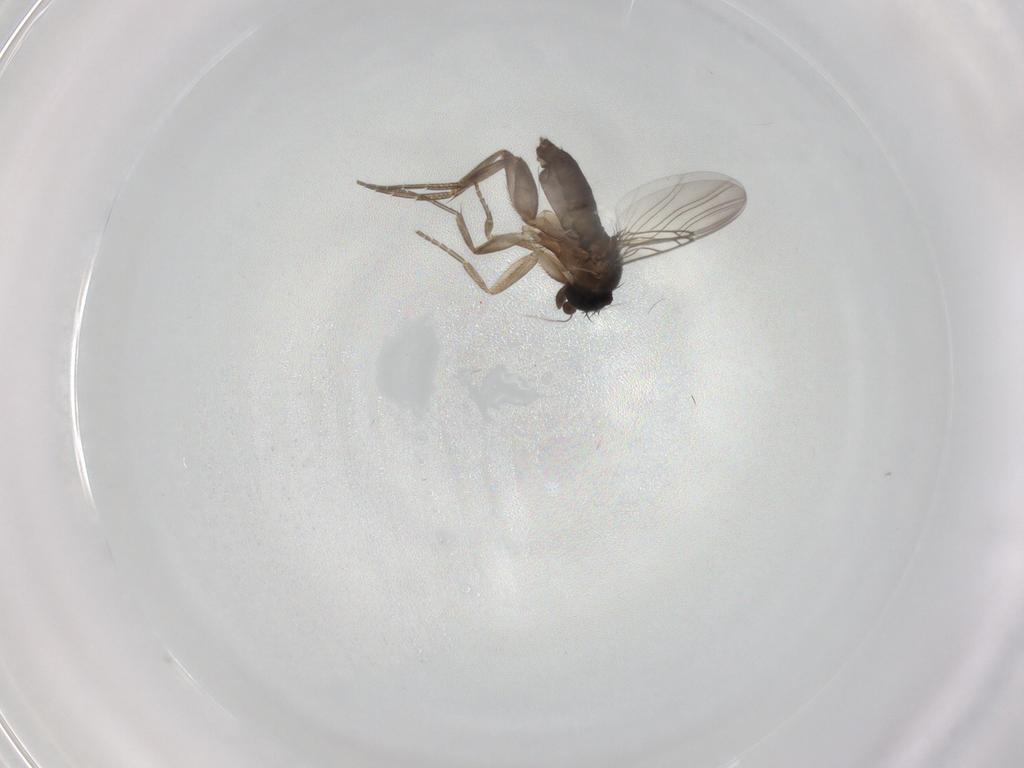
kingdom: Animalia
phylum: Arthropoda
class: Insecta
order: Diptera
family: Phoridae
